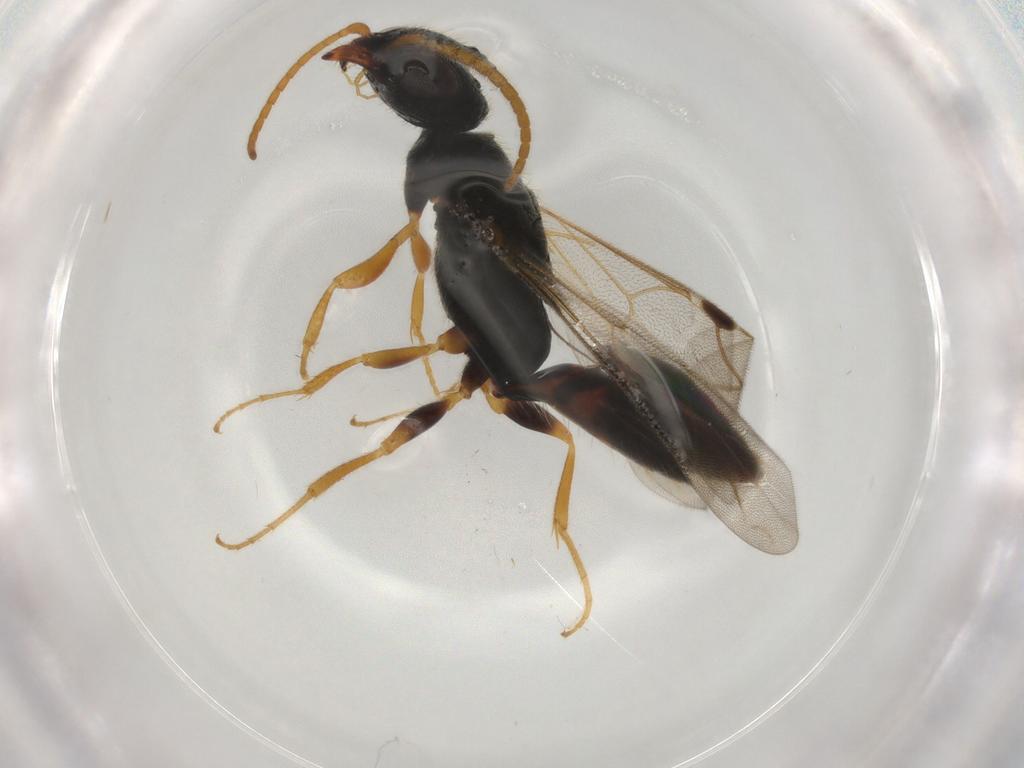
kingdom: Animalia
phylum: Arthropoda
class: Insecta
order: Hymenoptera
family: Bethylidae
